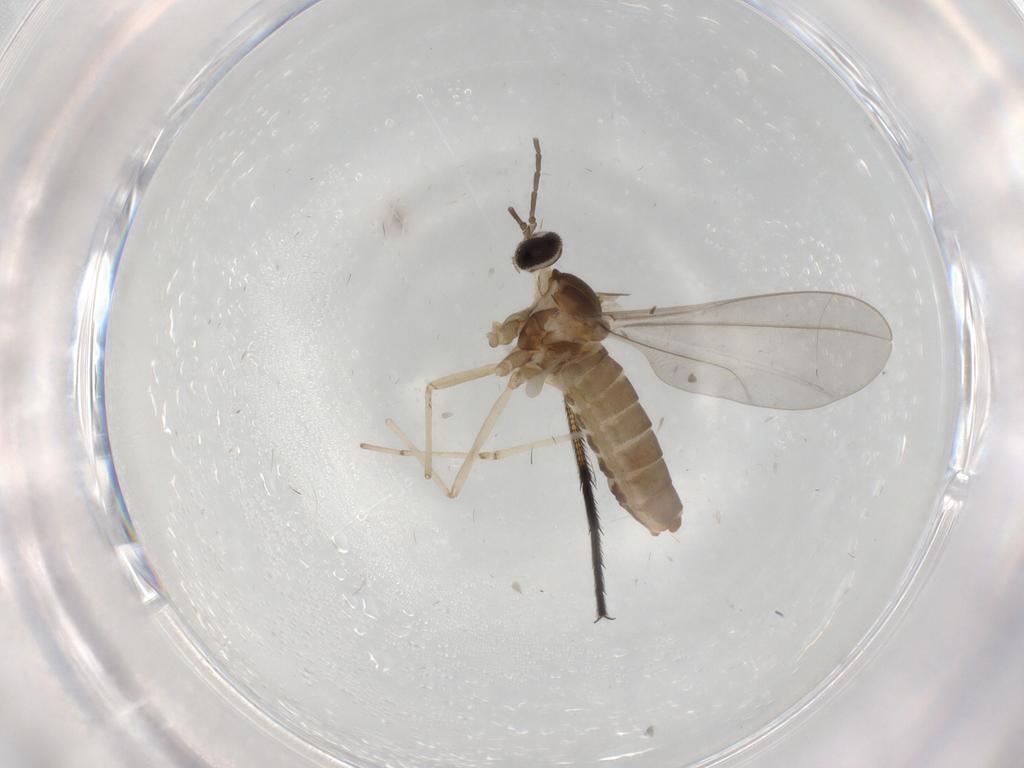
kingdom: Animalia
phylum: Arthropoda
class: Insecta
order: Diptera
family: Cecidomyiidae
